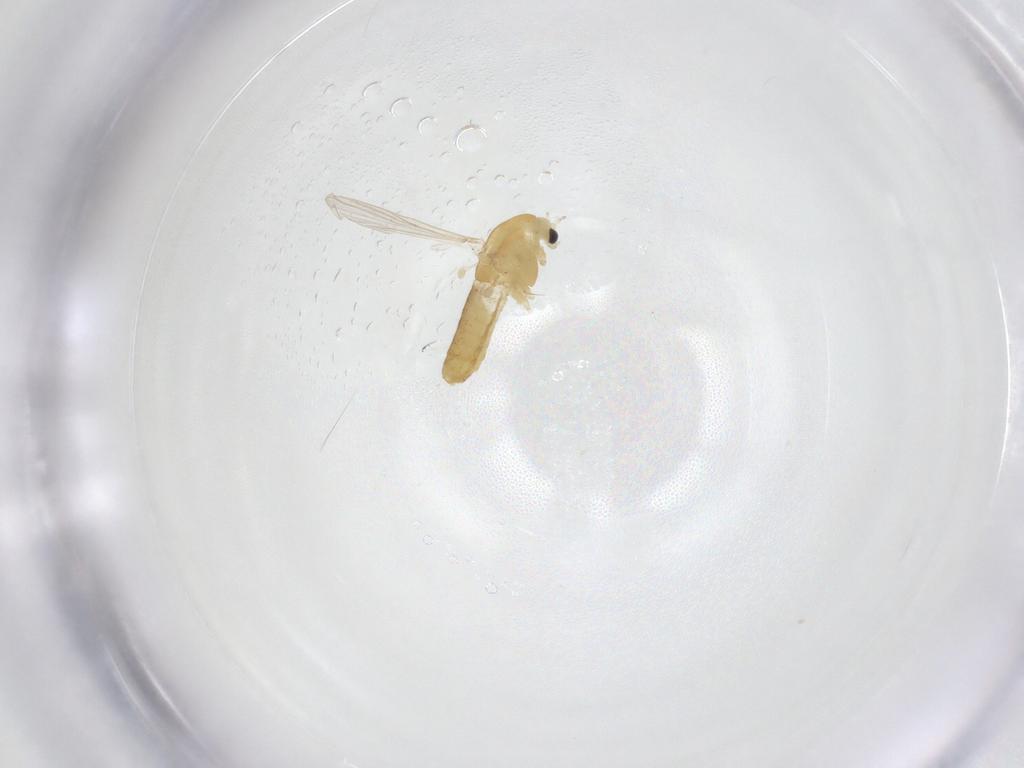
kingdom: Animalia
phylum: Arthropoda
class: Insecta
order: Diptera
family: Chironomidae
